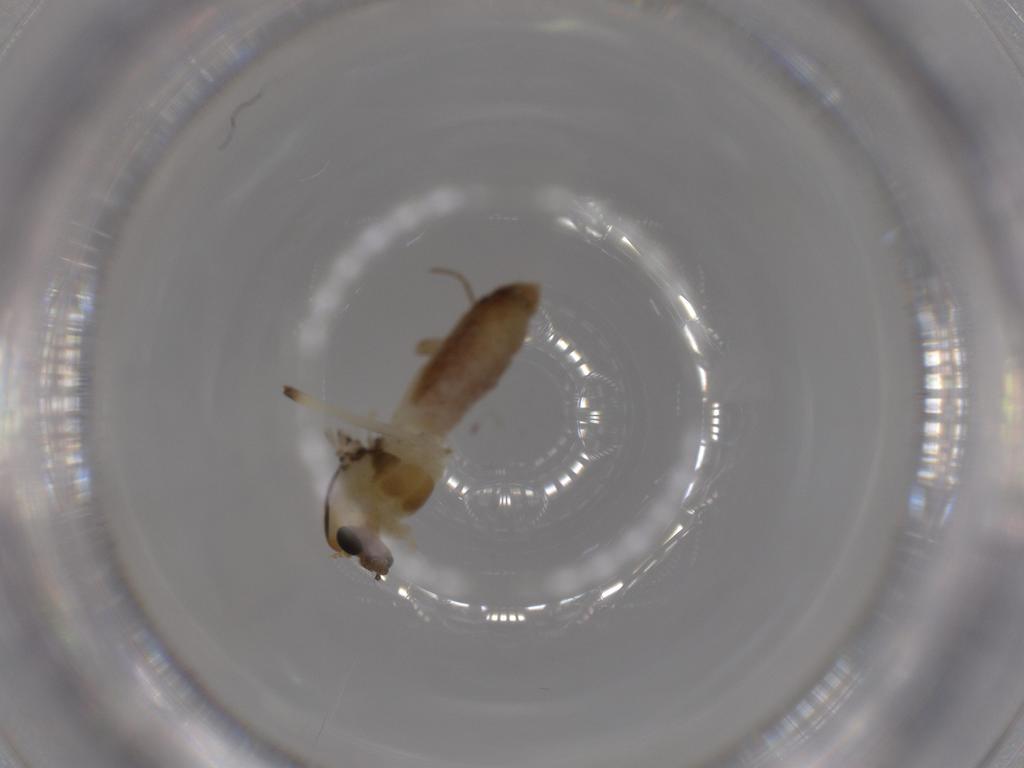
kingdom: Animalia
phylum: Arthropoda
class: Insecta
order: Diptera
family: Chironomidae
